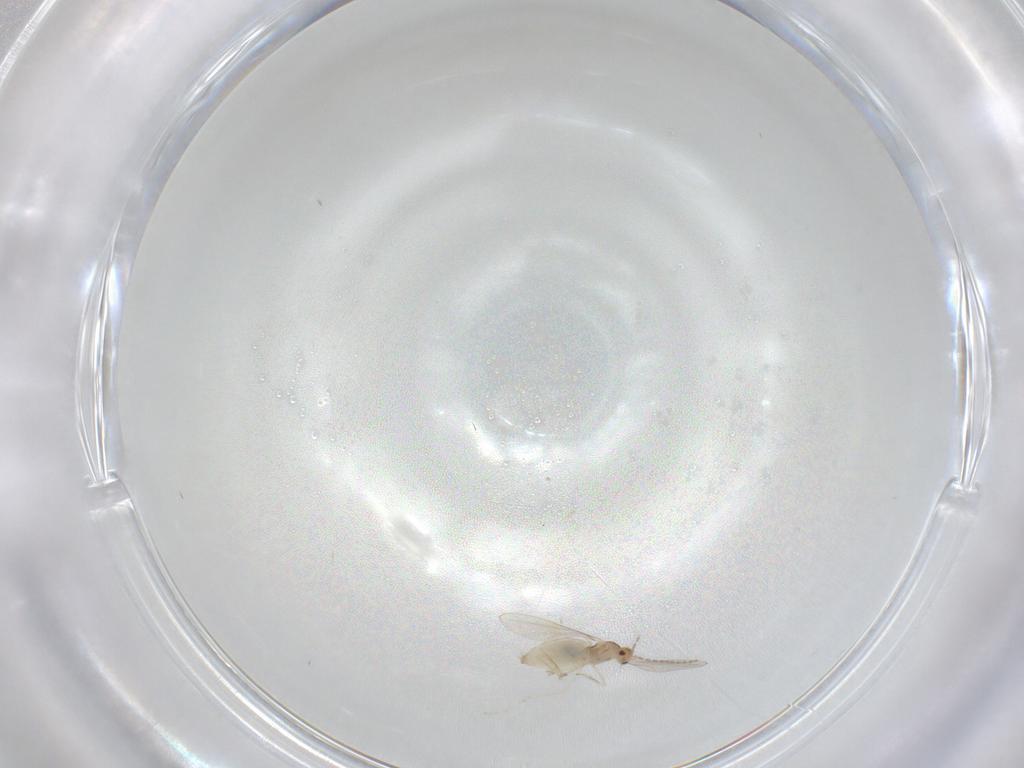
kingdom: Animalia
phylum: Arthropoda
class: Insecta
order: Diptera
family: Cecidomyiidae
